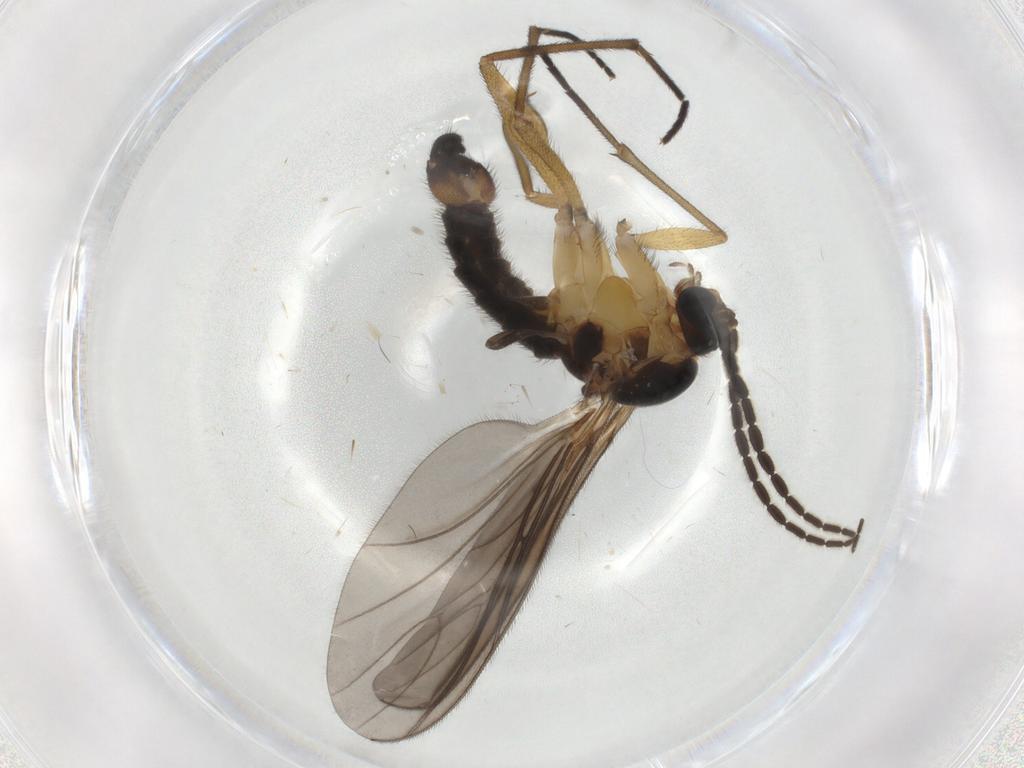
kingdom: Animalia
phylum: Arthropoda
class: Insecta
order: Diptera
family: Sciaridae
